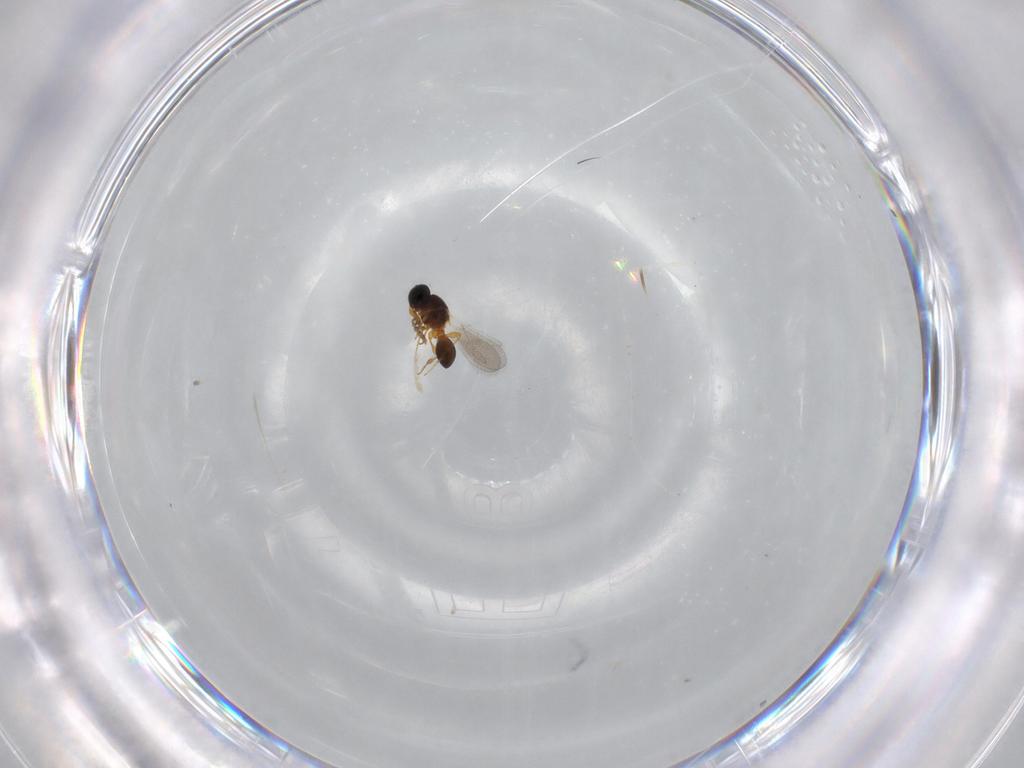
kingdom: Animalia
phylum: Arthropoda
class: Insecta
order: Hymenoptera
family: Platygastridae
